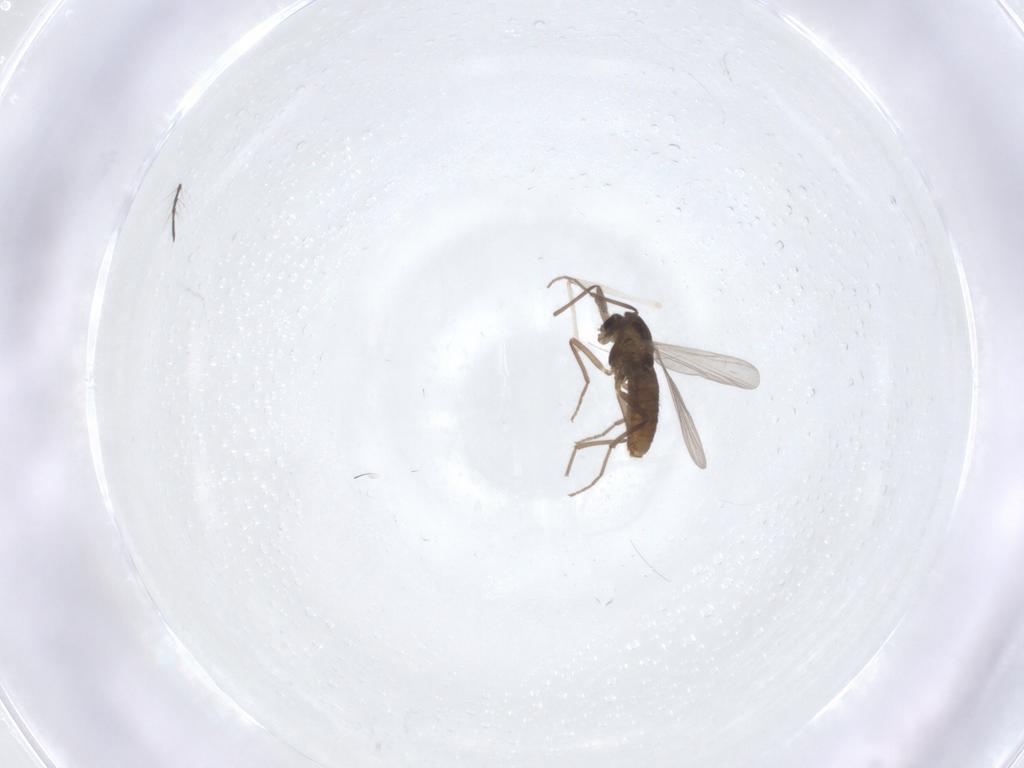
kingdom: Animalia
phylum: Arthropoda
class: Insecta
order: Diptera
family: Chironomidae
